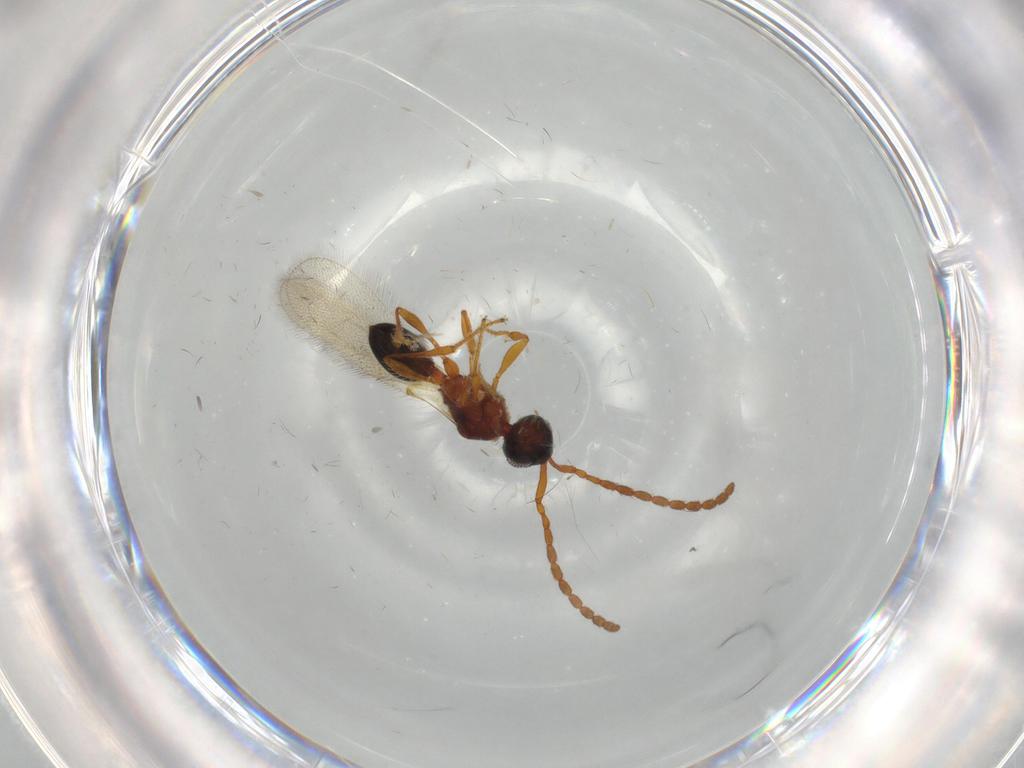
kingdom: Animalia
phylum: Arthropoda
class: Insecta
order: Hymenoptera
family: Diapriidae
